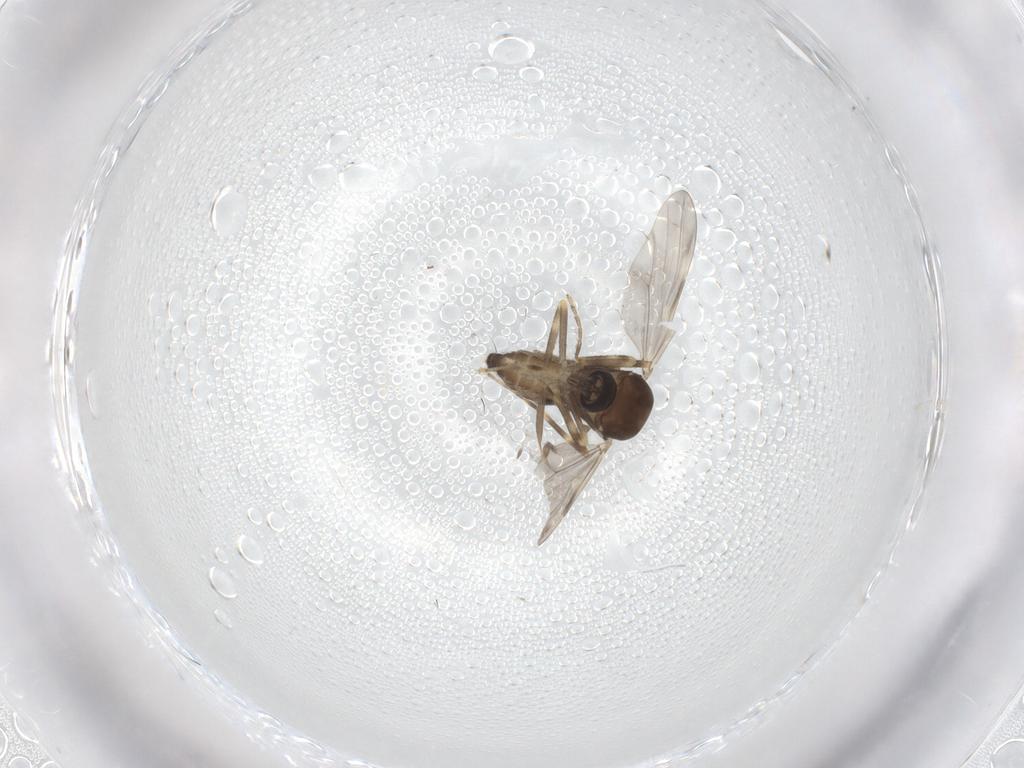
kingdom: Animalia
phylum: Arthropoda
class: Insecta
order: Diptera
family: Ceratopogonidae
